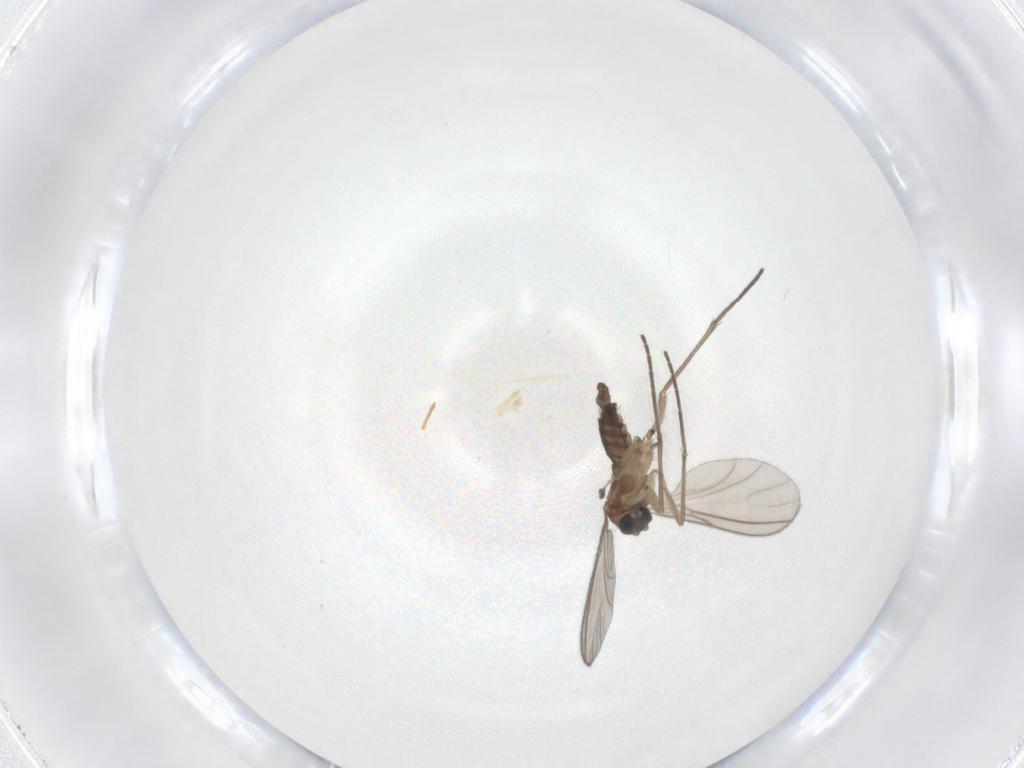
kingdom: Animalia
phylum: Arthropoda
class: Insecta
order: Diptera
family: Sciaridae
